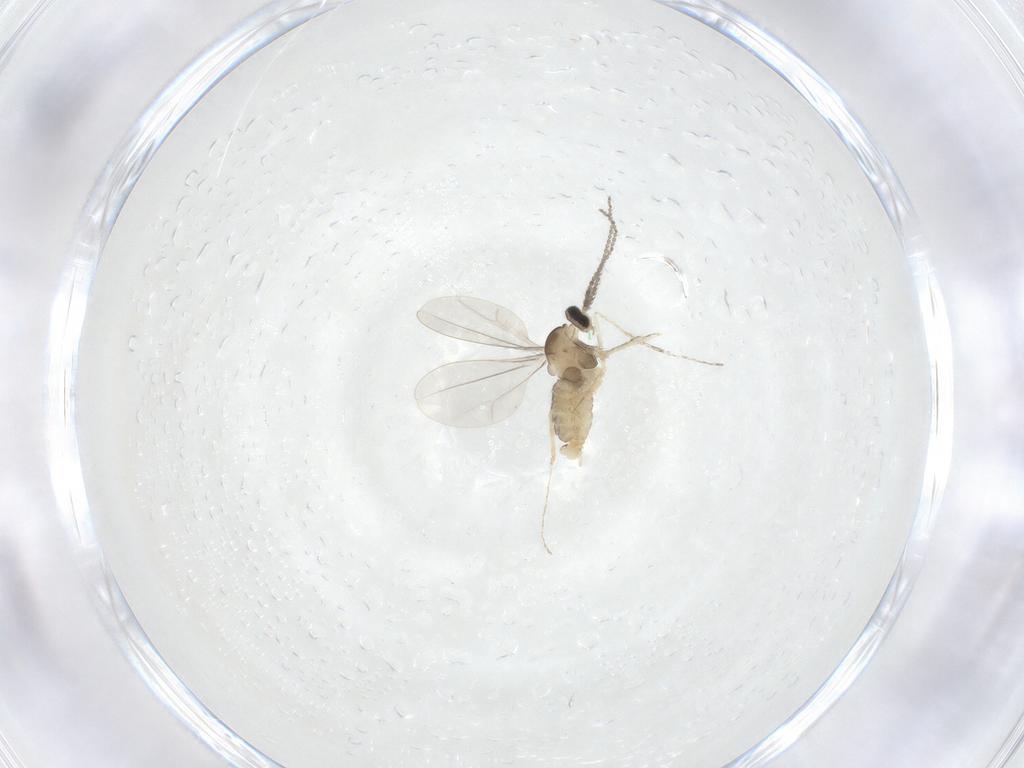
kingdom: Animalia
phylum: Arthropoda
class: Insecta
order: Diptera
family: Cecidomyiidae
